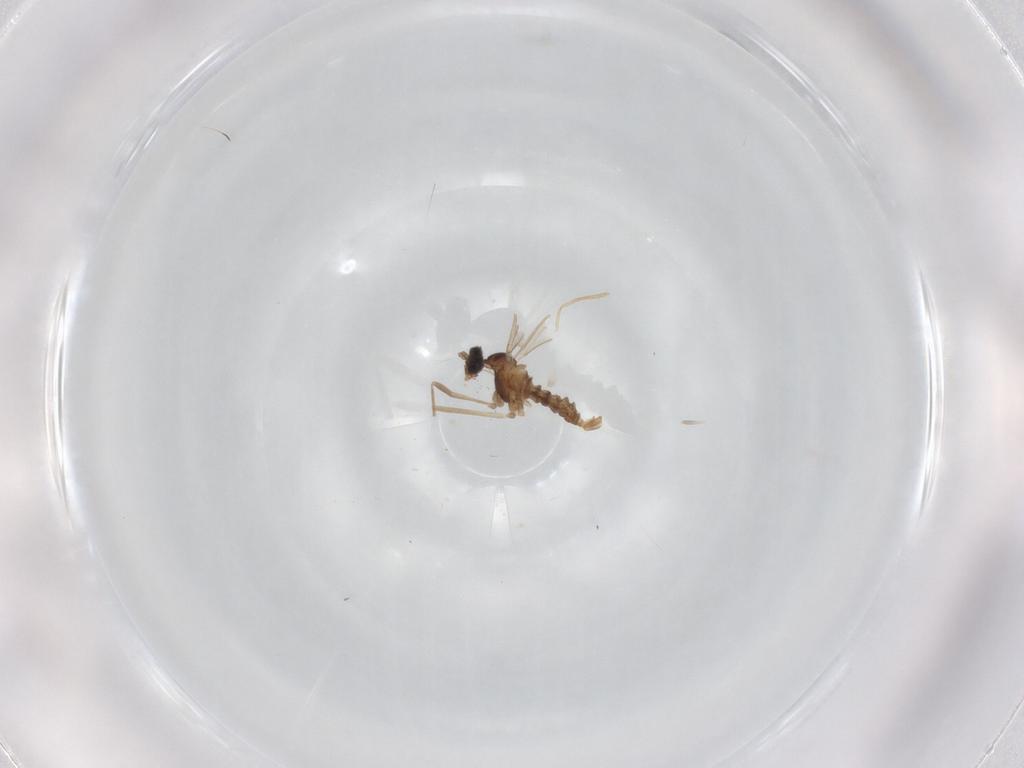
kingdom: Animalia
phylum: Arthropoda
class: Insecta
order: Diptera
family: Cecidomyiidae
